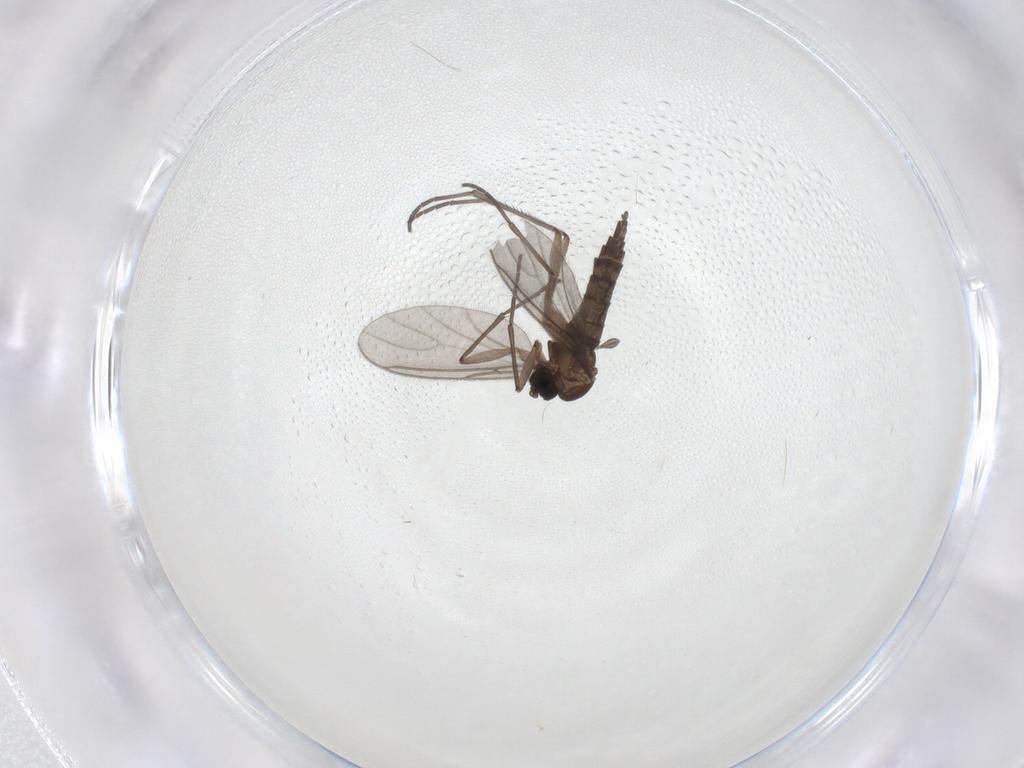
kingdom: Animalia
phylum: Arthropoda
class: Insecta
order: Diptera
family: Sciaridae
